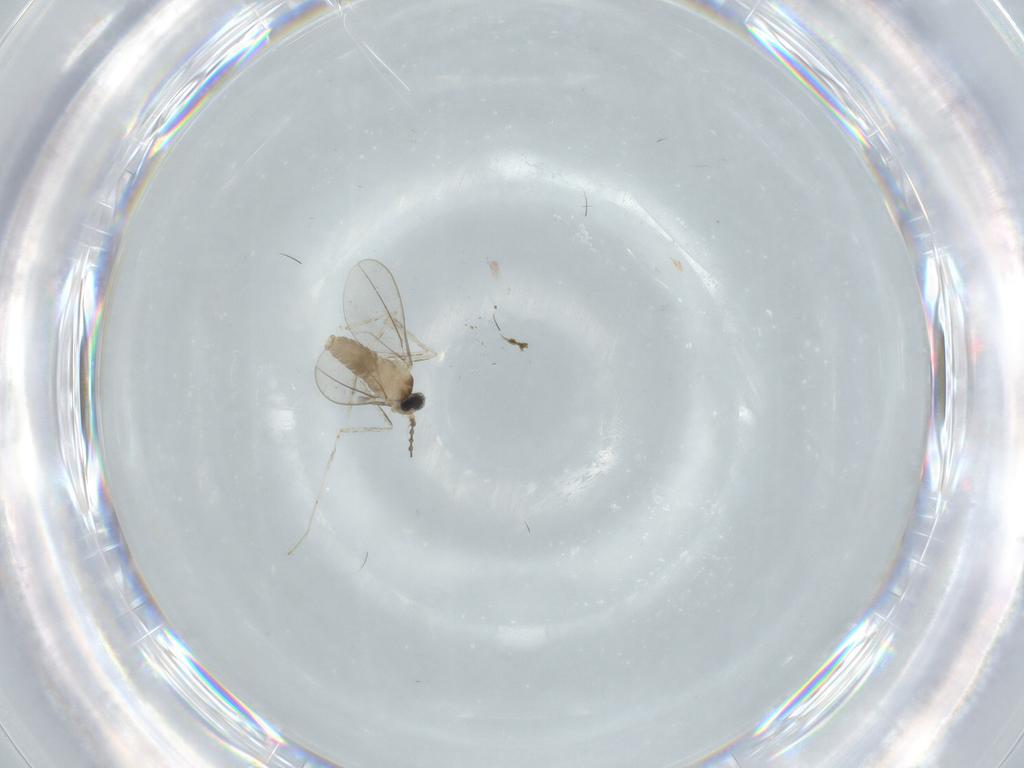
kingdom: Animalia
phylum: Arthropoda
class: Insecta
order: Diptera
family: Cecidomyiidae
